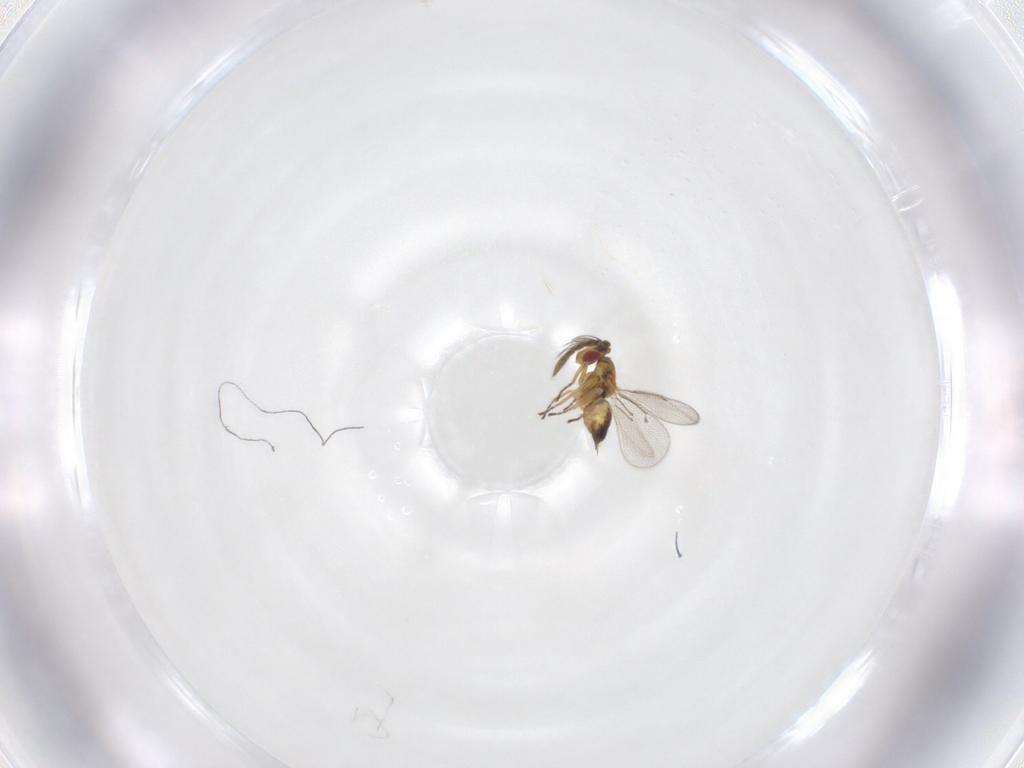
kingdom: Animalia
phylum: Arthropoda
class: Insecta
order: Hymenoptera
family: Eulophidae
